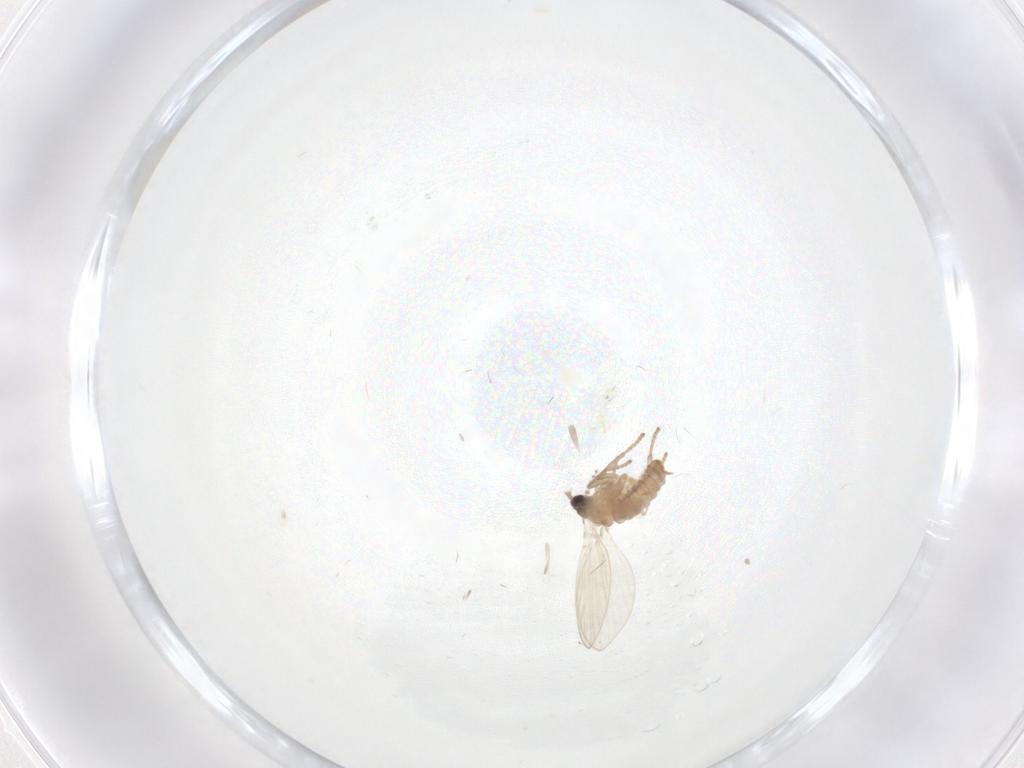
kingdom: Animalia
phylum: Arthropoda
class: Insecta
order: Diptera
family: Psychodidae
